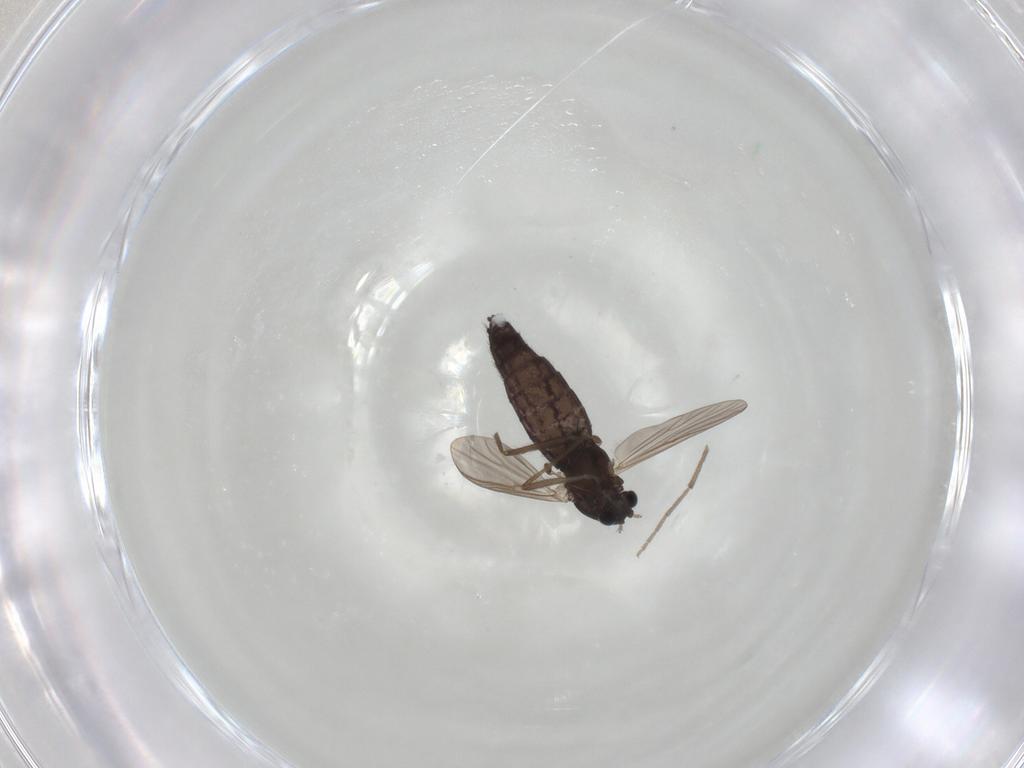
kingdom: Animalia
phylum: Arthropoda
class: Insecta
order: Diptera
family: Chironomidae
